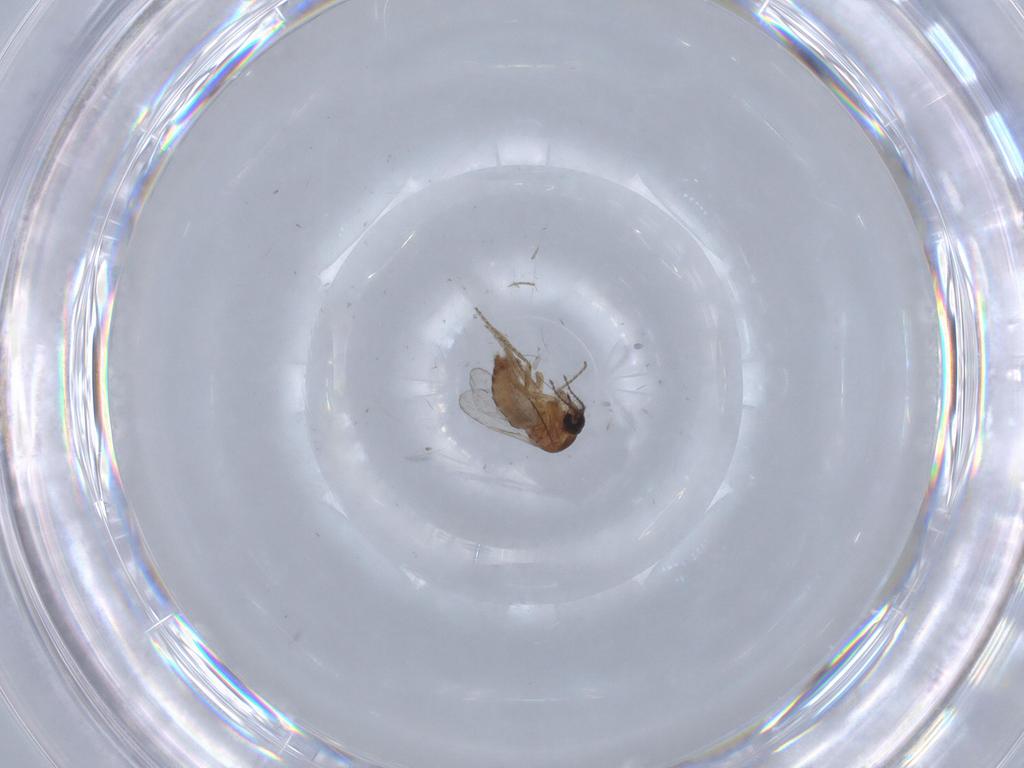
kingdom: Animalia
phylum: Arthropoda
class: Insecta
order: Diptera
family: Ceratopogonidae
